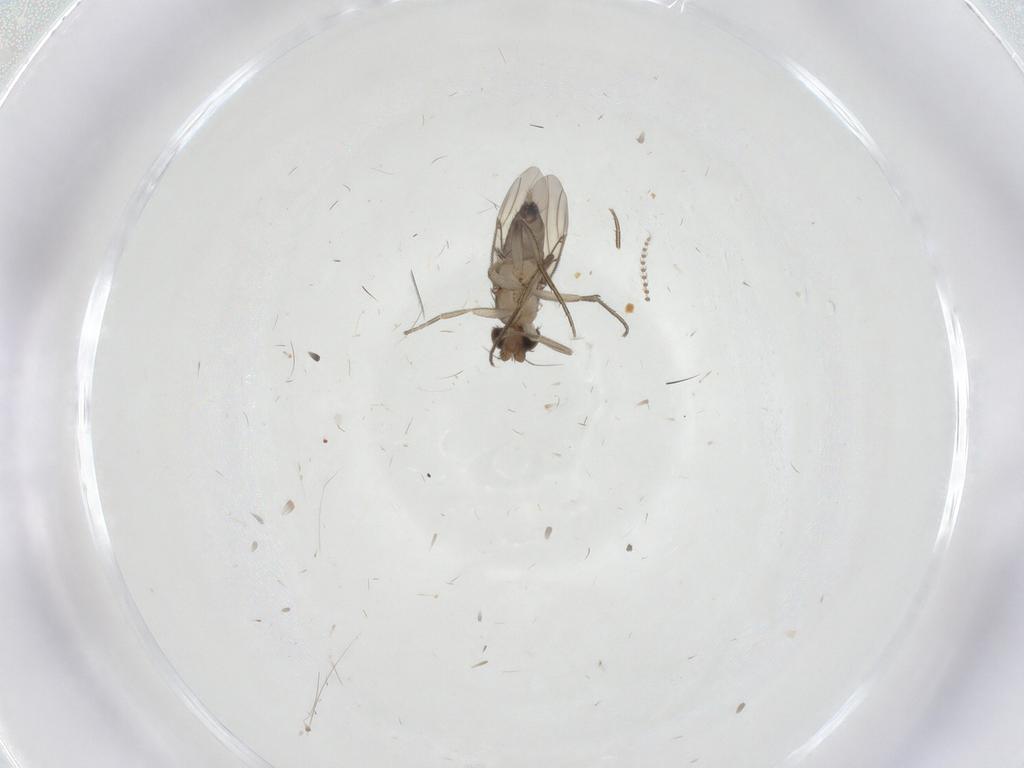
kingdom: Animalia
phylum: Arthropoda
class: Insecta
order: Diptera
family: Phoridae
